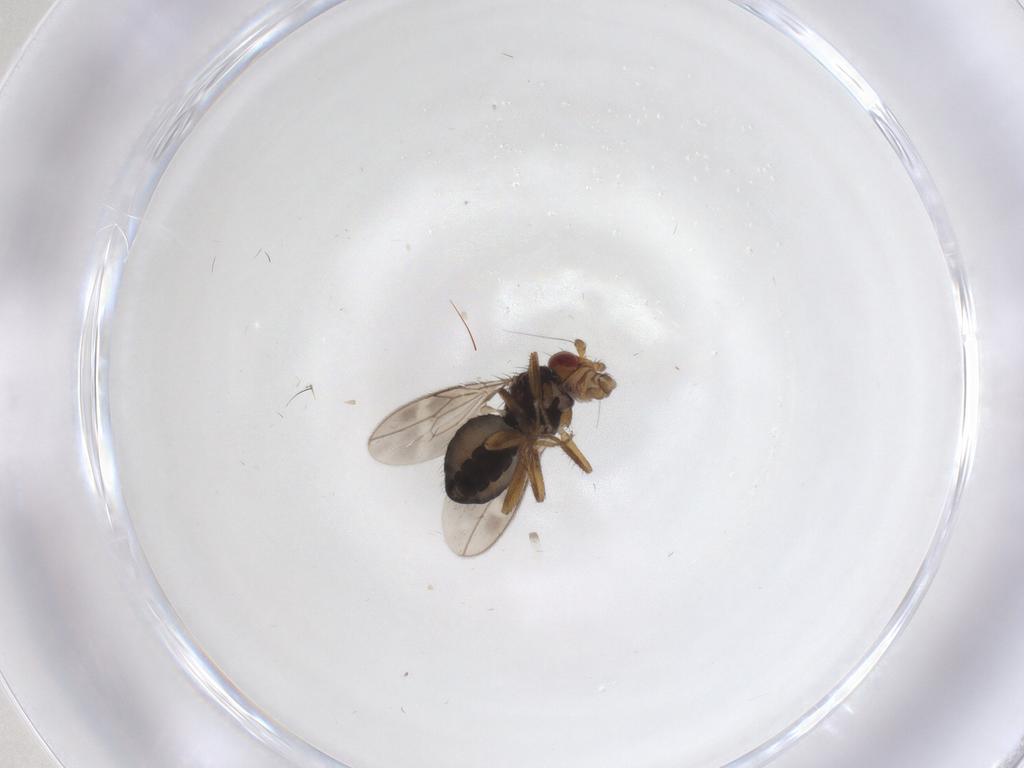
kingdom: Animalia
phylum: Arthropoda
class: Insecta
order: Diptera
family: Sphaeroceridae
